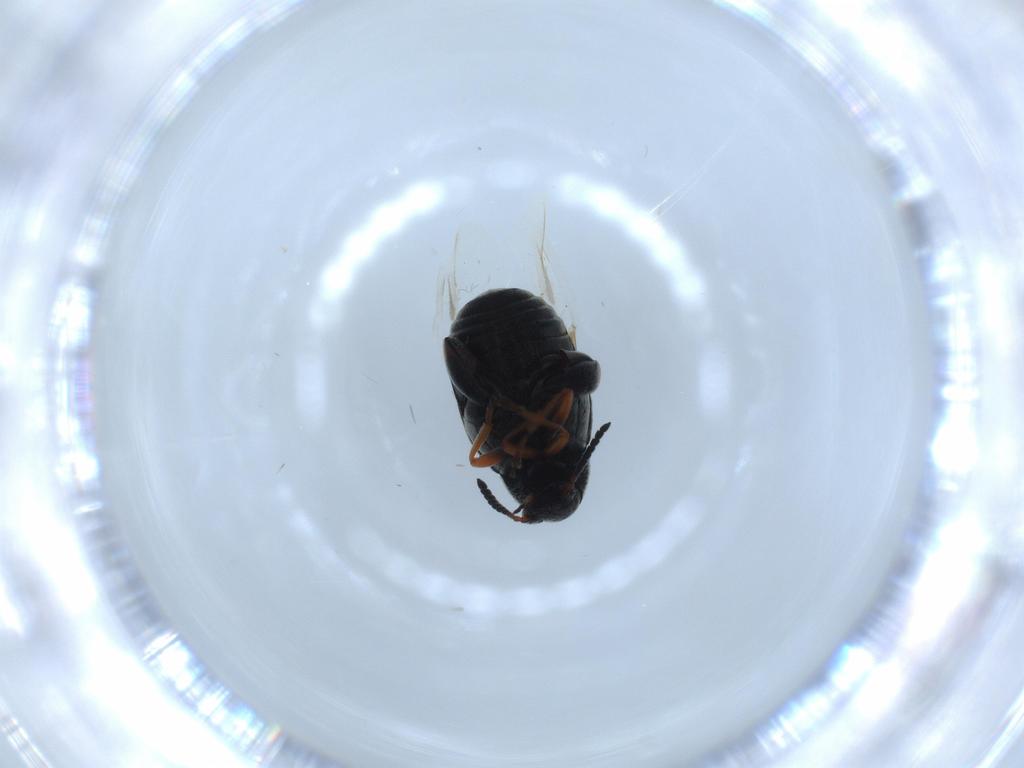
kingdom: Animalia
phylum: Arthropoda
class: Insecta
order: Coleoptera
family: Chrysomelidae
